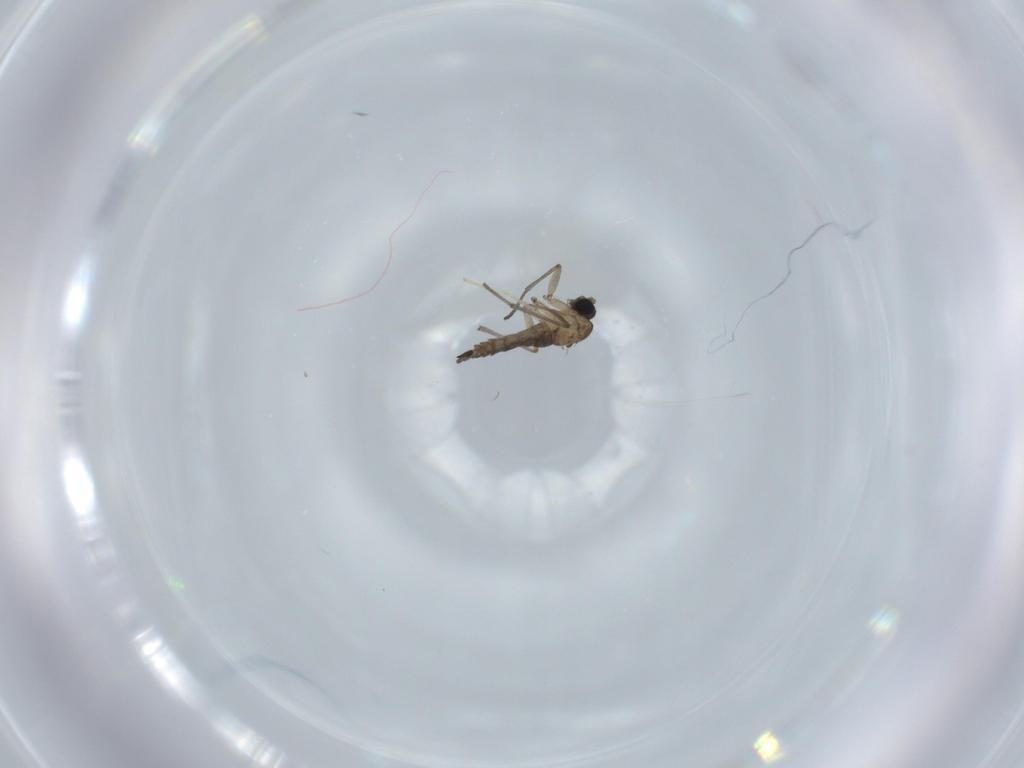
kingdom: Animalia
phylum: Arthropoda
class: Insecta
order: Diptera
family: Sciaridae
